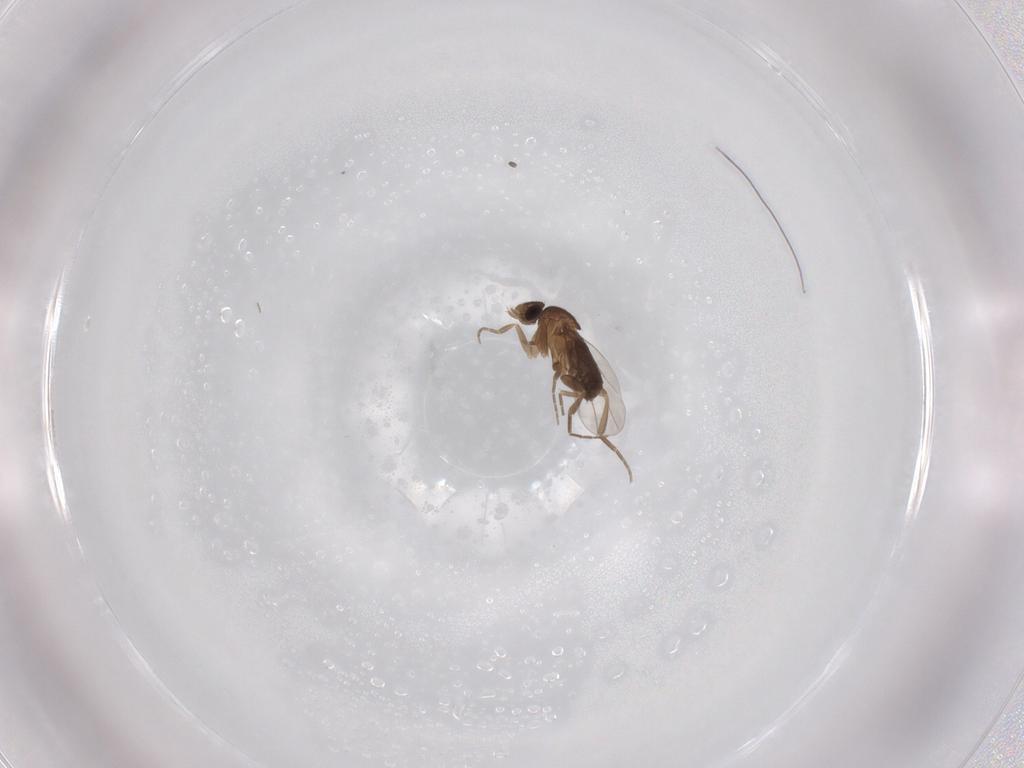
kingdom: Animalia
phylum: Arthropoda
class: Insecta
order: Diptera
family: Phoridae
